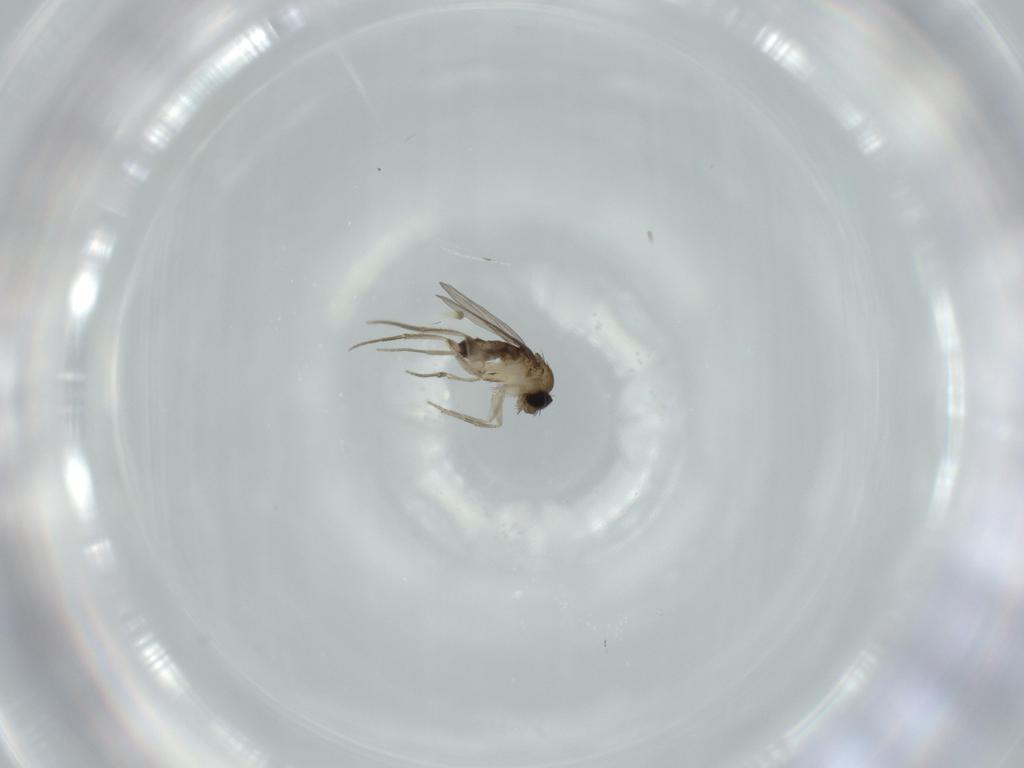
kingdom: Animalia
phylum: Arthropoda
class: Insecta
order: Diptera
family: Phoridae
